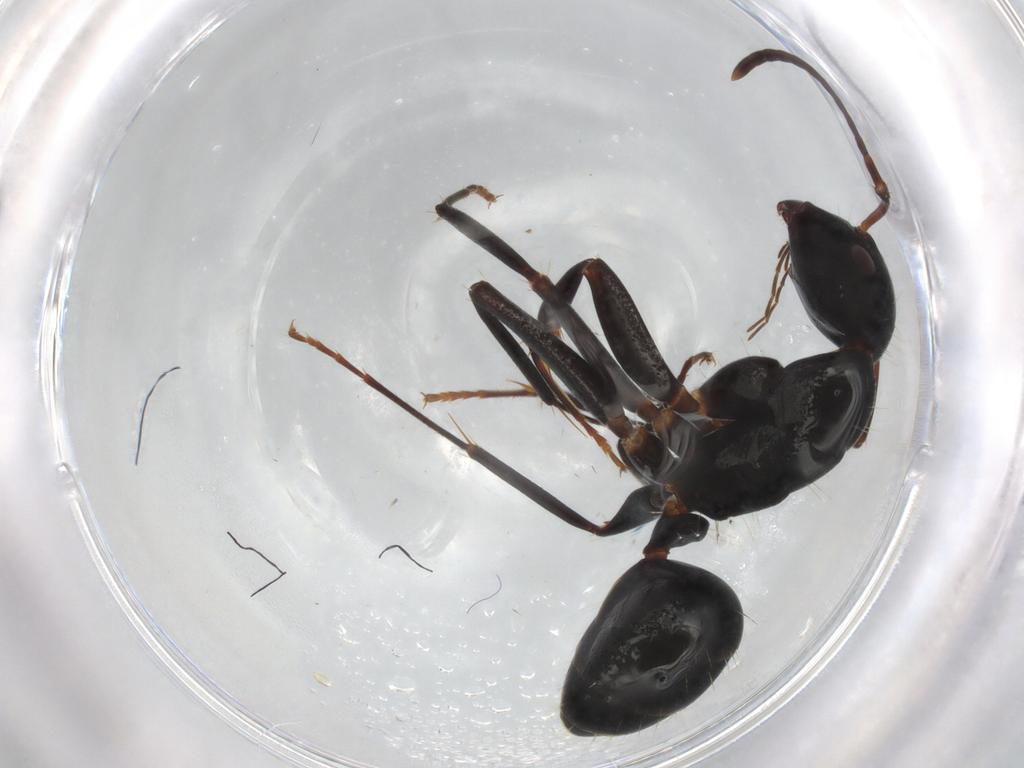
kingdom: Animalia
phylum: Arthropoda
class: Insecta
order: Hymenoptera
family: Formicidae
